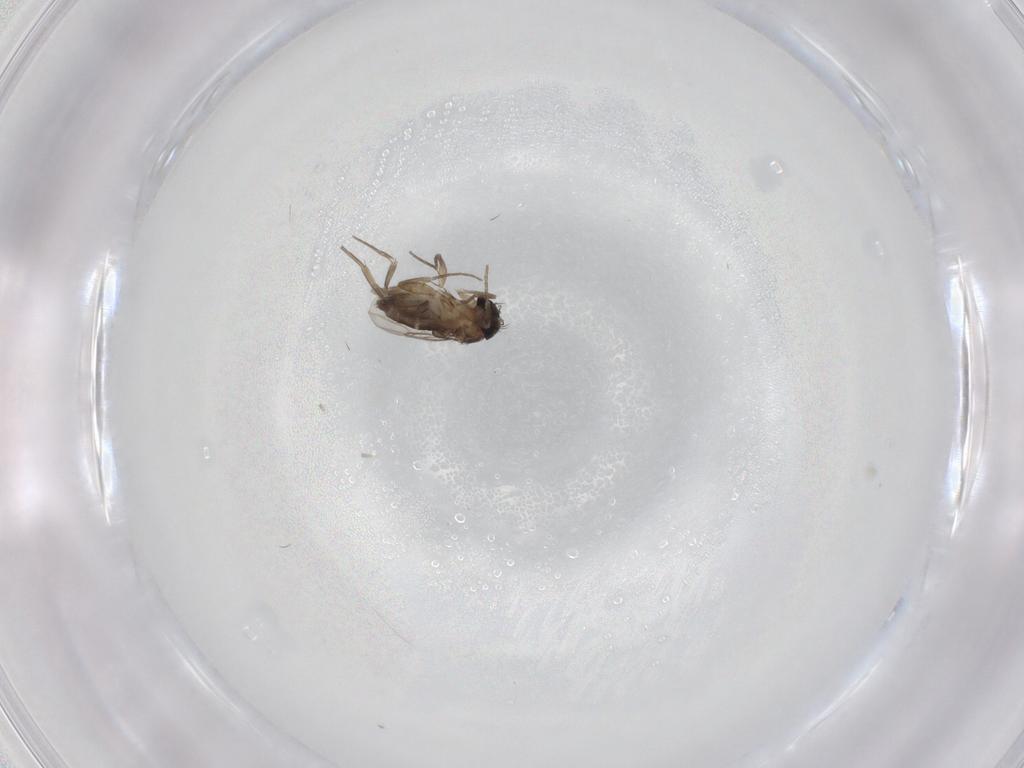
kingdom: Animalia
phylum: Arthropoda
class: Insecta
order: Diptera
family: Phoridae
